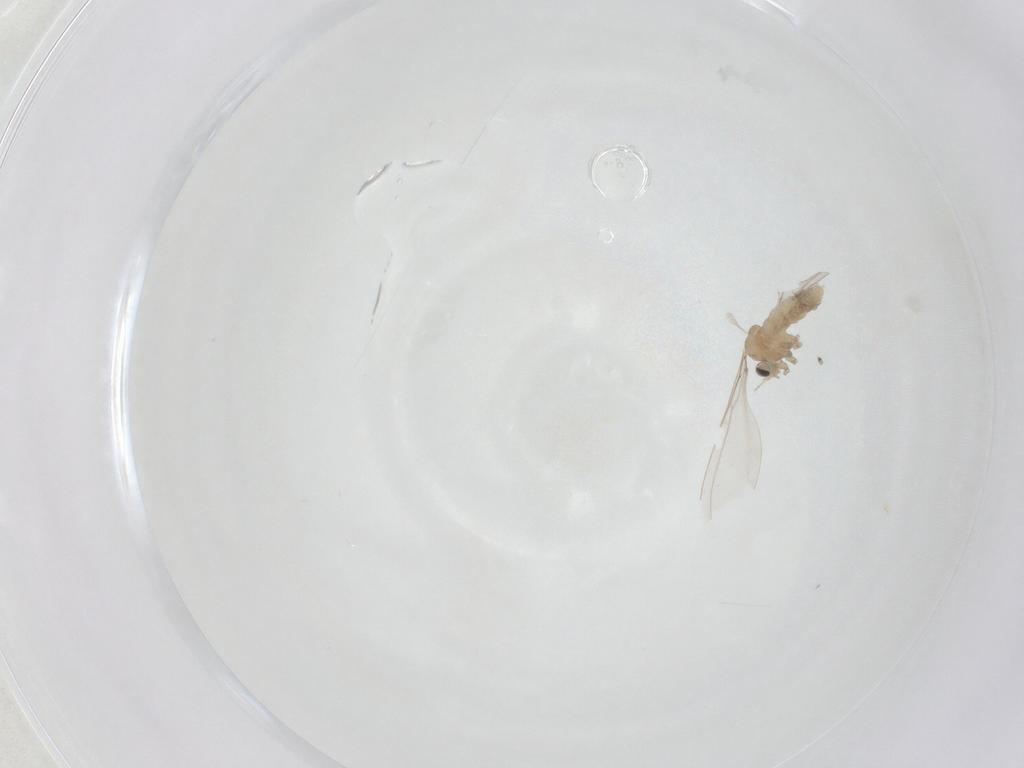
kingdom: Animalia
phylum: Arthropoda
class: Insecta
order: Diptera
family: Cecidomyiidae
